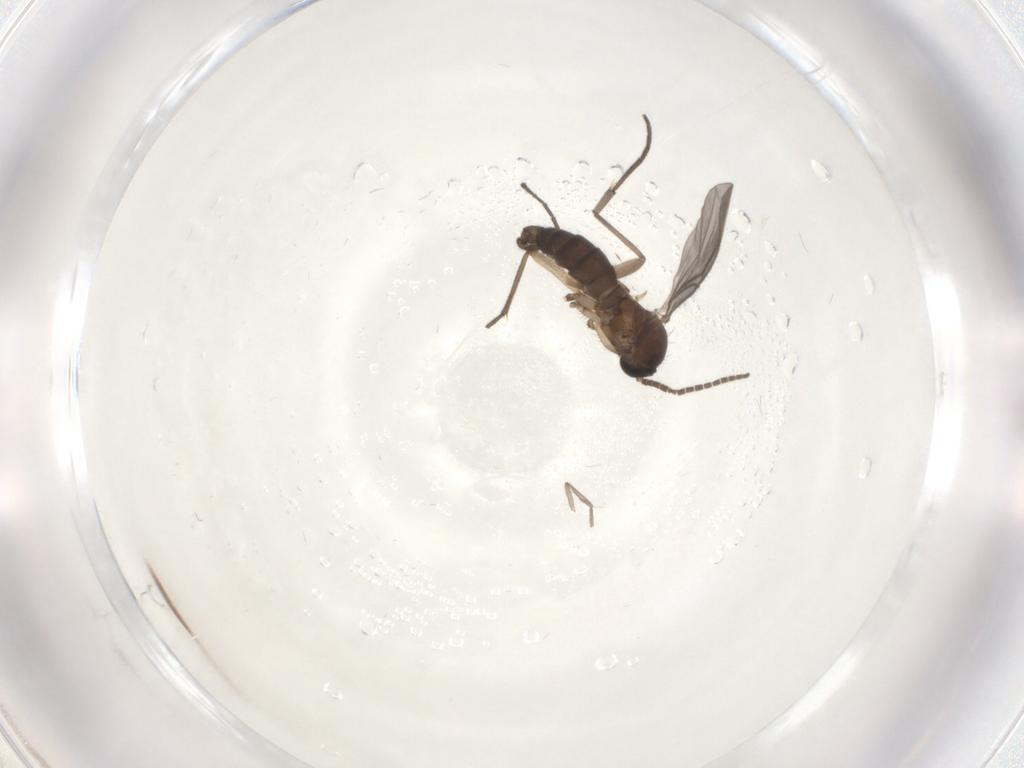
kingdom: Animalia
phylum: Arthropoda
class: Insecta
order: Diptera
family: Sciaridae
